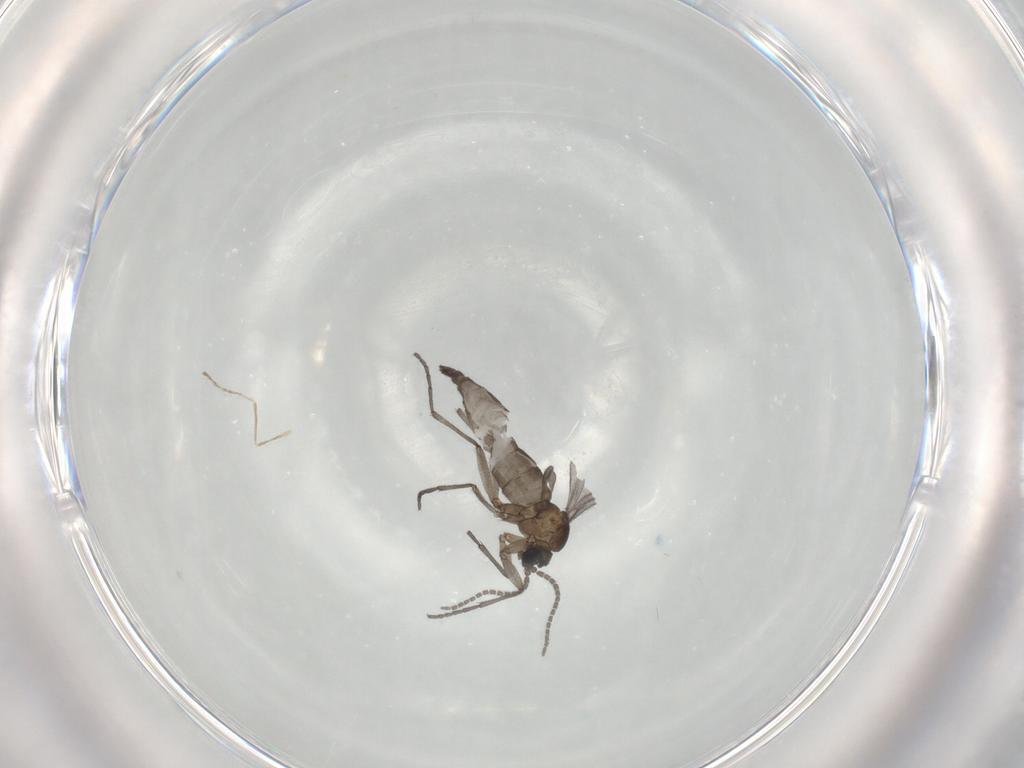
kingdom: Animalia
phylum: Arthropoda
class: Insecta
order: Diptera
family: Sciaridae
